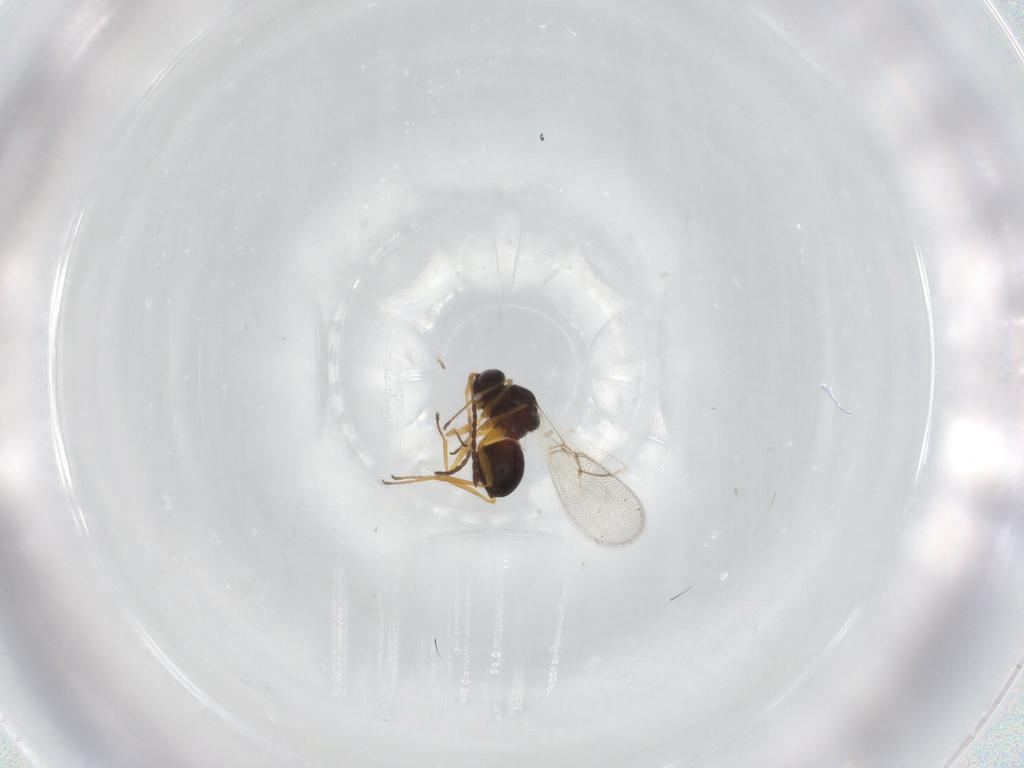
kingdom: Animalia
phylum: Arthropoda
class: Insecta
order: Hymenoptera
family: Figitidae
